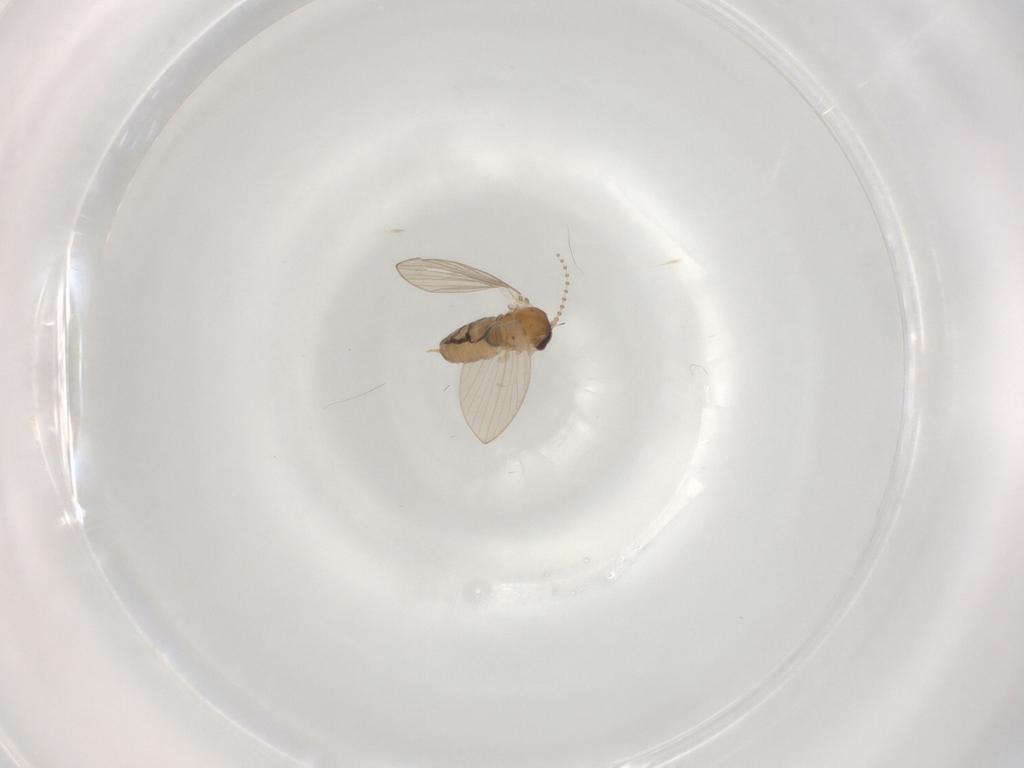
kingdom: Animalia
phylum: Arthropoda
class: Insecta
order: Diptera
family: Psychodidae
